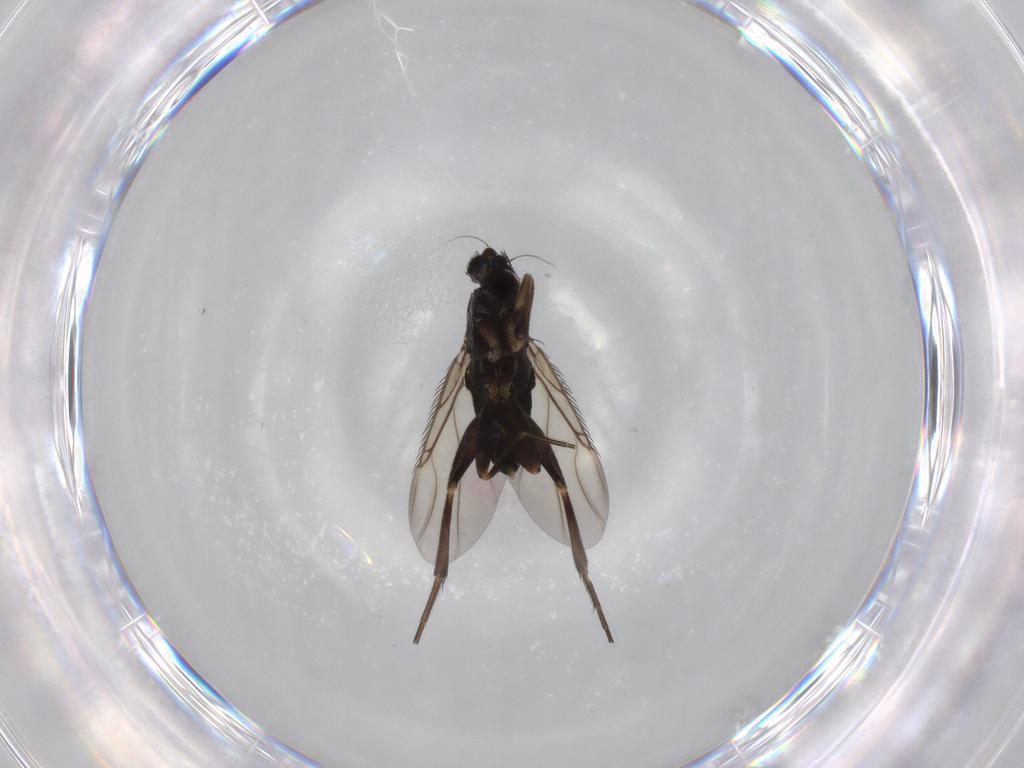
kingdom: Animalia
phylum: Arthropoda
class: Insecta
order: Diptera
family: Phoridae
